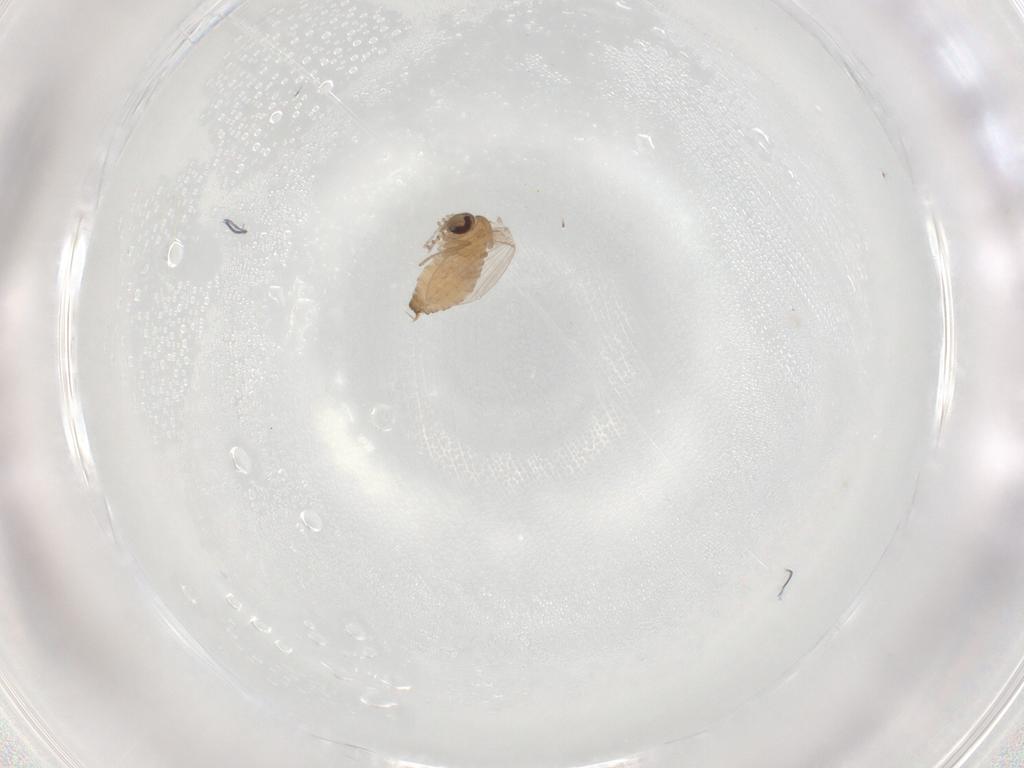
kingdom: Animalia
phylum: Arthropoda
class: Insecta
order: Diptera
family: Psychodidae
